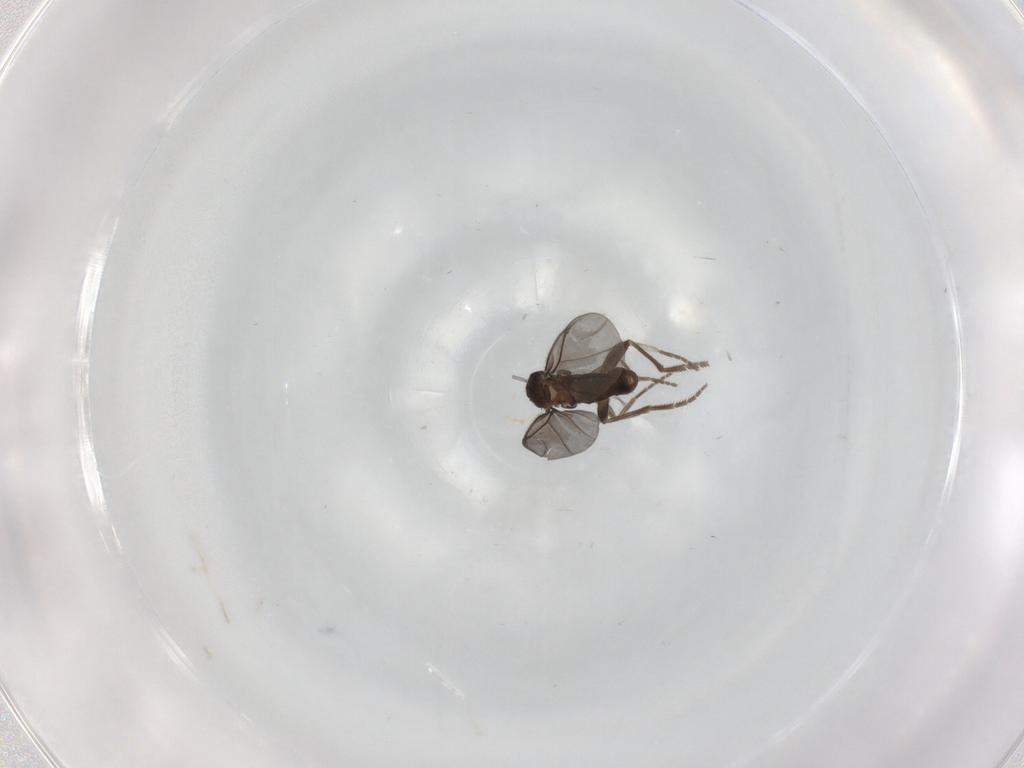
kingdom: Animalia
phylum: Arthropoda
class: Insecta
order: Diptera
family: Phoridae
